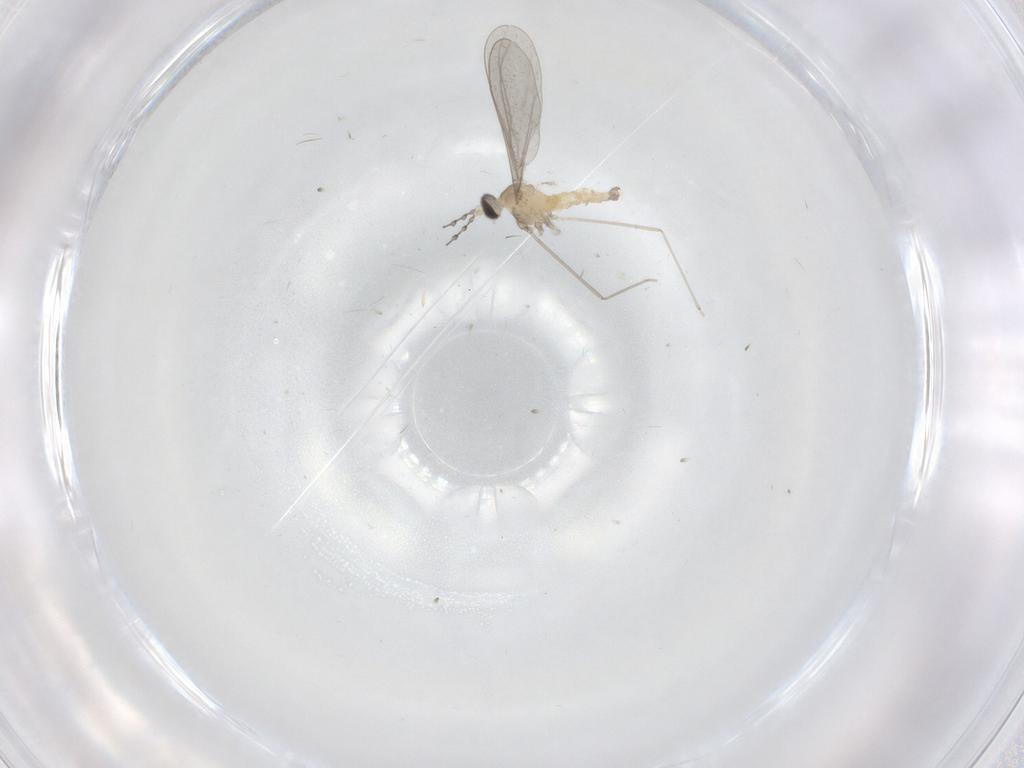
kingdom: Animalia
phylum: Arthropoda
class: Insecta
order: Diptera
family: Cecidomyiidae
